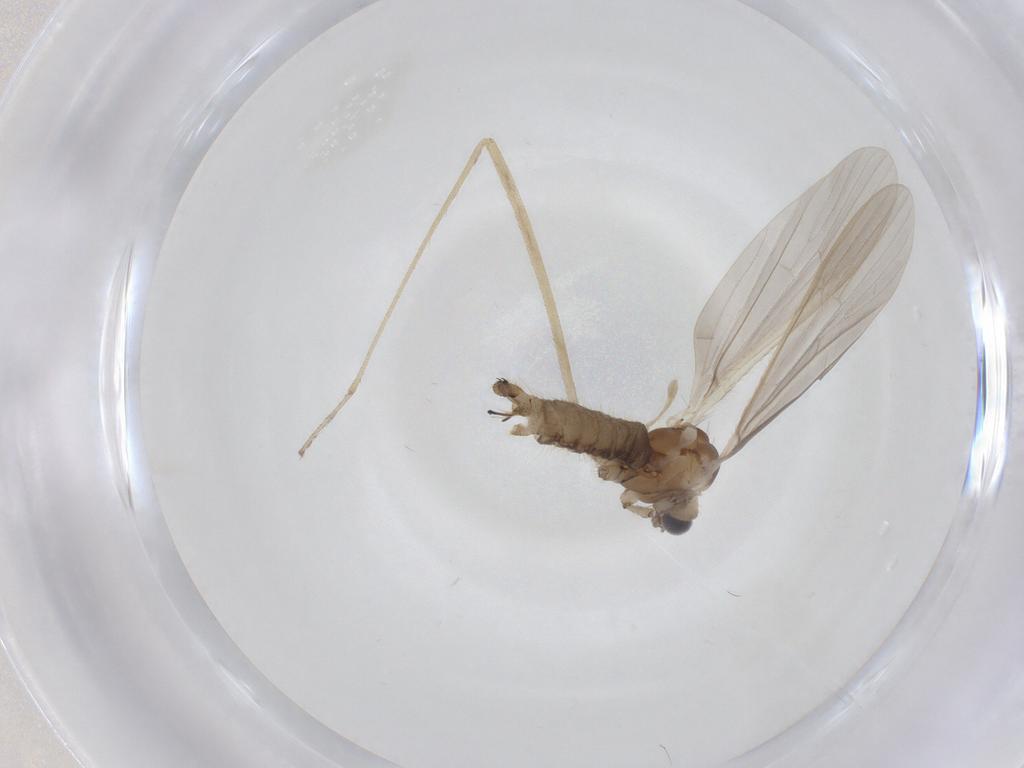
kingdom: Animalia
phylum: Arthropoda
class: Insecta
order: Diptera
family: Limoniidae
